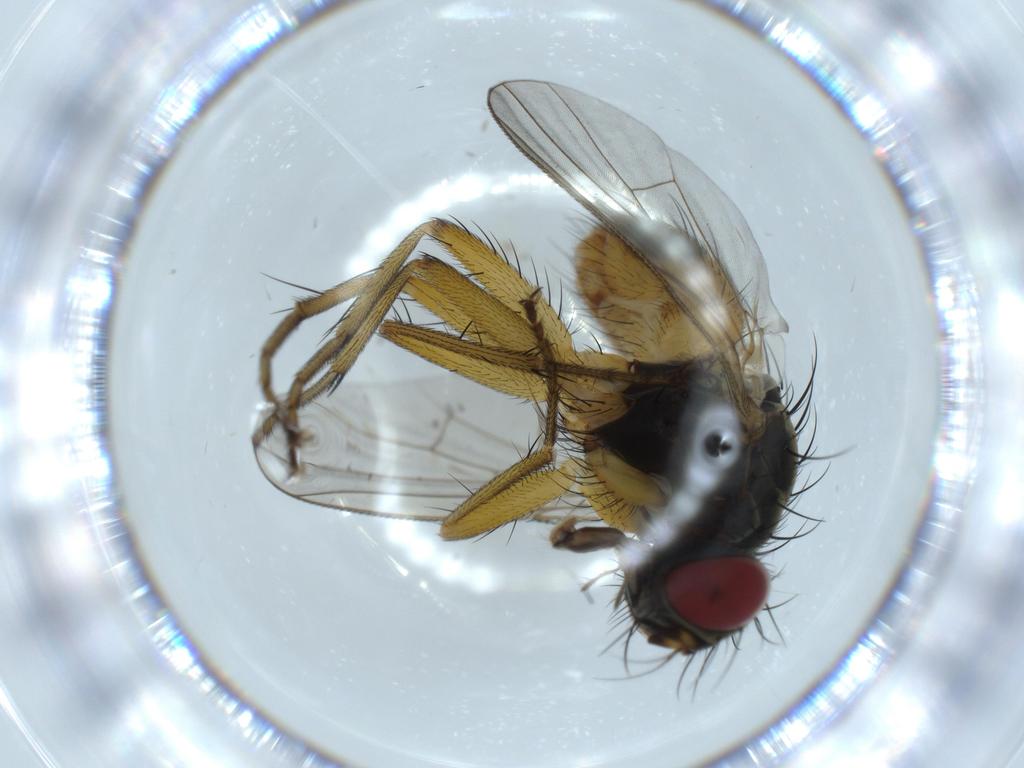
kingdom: Animalia
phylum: Arthropoda
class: Insecta
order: Diptera
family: Muscidae
